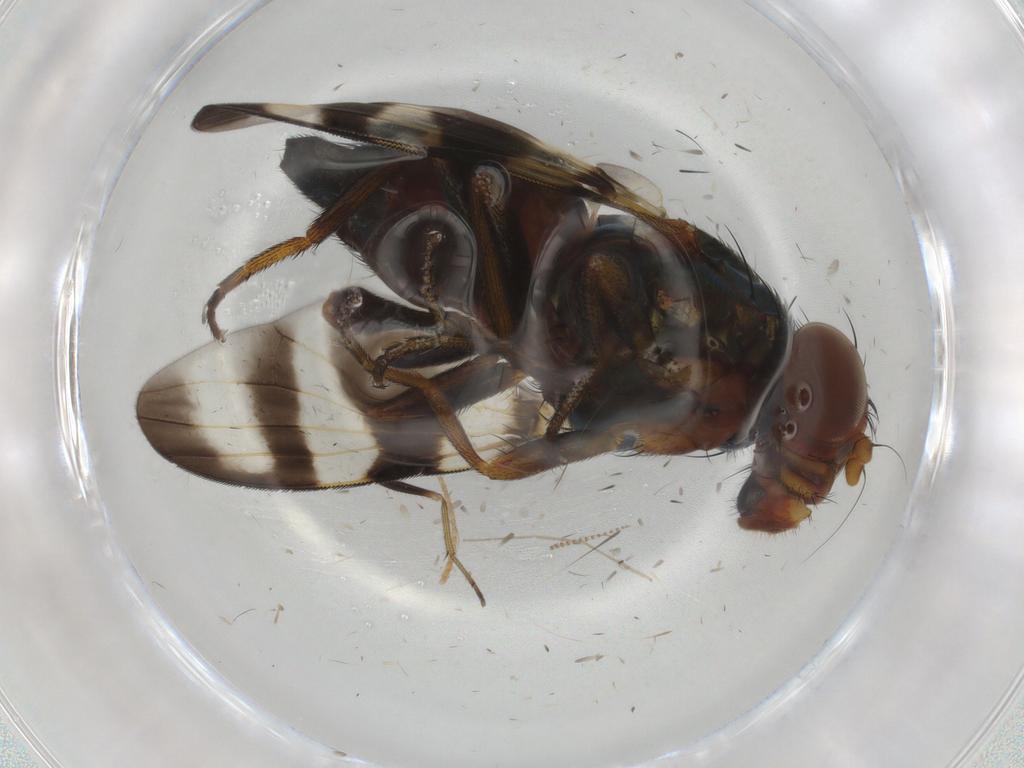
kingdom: Animalia
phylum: Arthropoda
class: Insecta
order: Diptera
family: Ulidiidae
